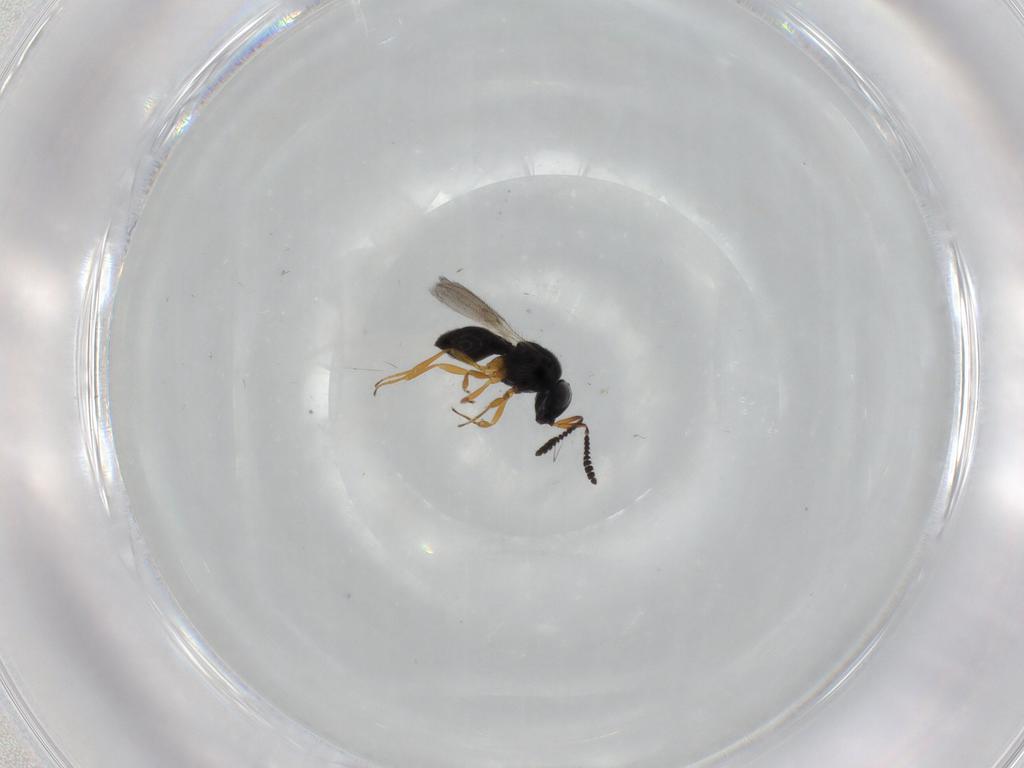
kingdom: Animalia
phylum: Arthropoda
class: Insecta
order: Hymenoptera
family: Scelionidae
